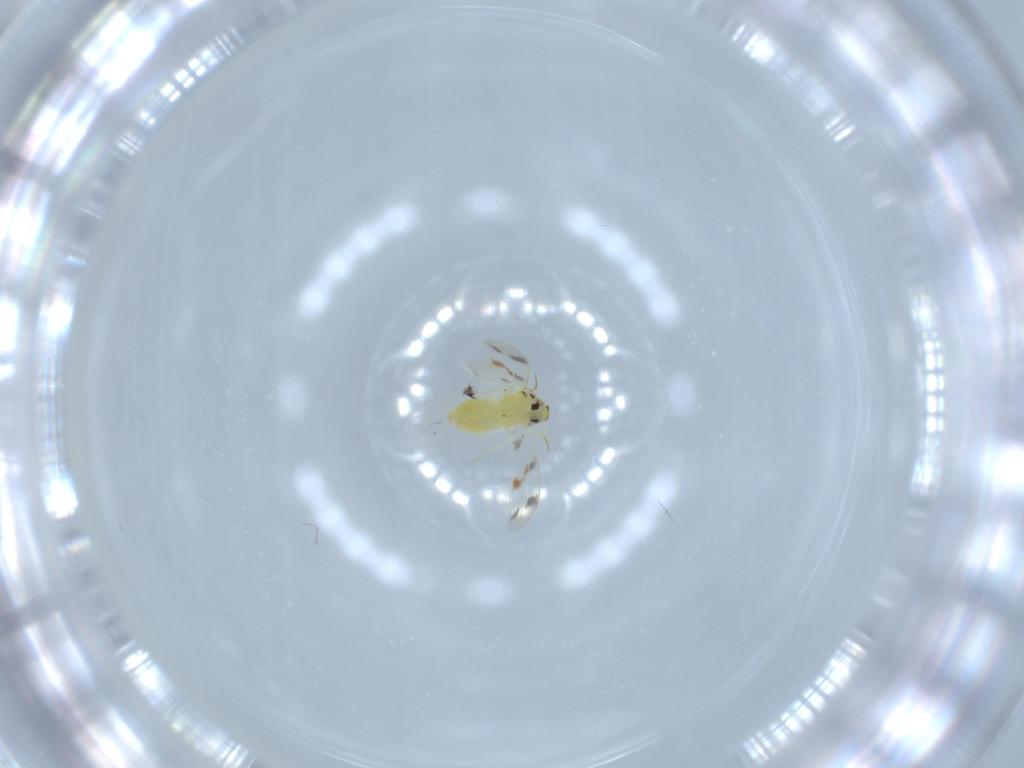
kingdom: Animalia
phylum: Arthropoda
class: Insecta
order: Hemiptera
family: Aleyrodidae
